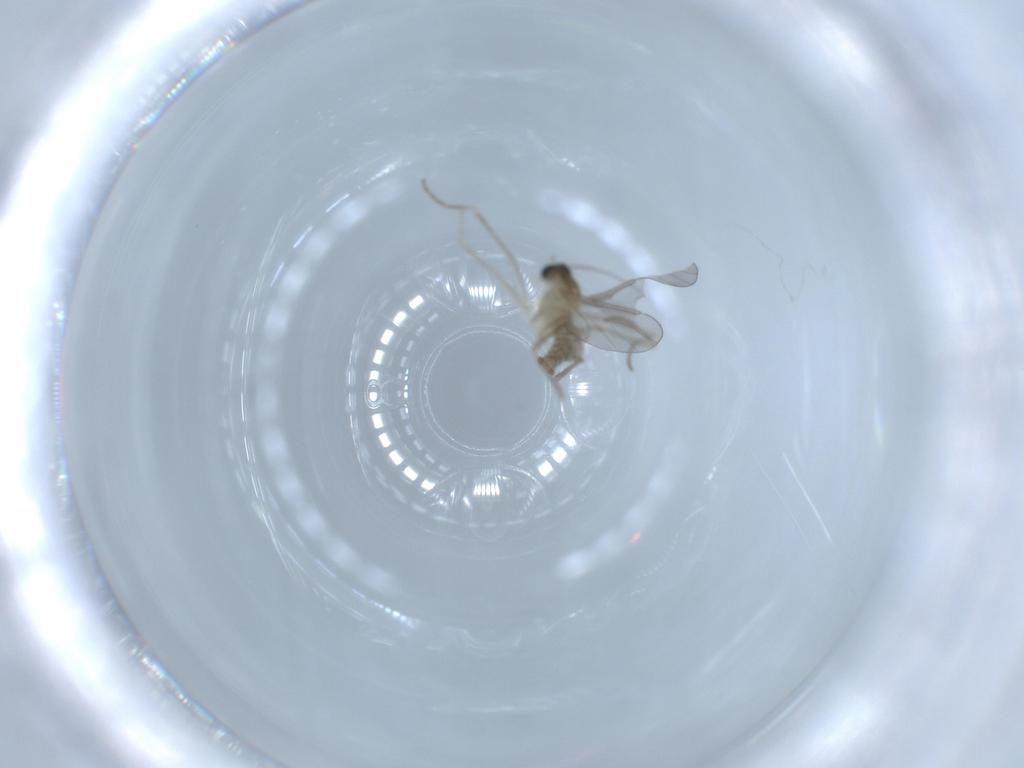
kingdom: Animalia
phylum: Arthropoda
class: Insecta
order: Diptera
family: Cecidomyiidae
